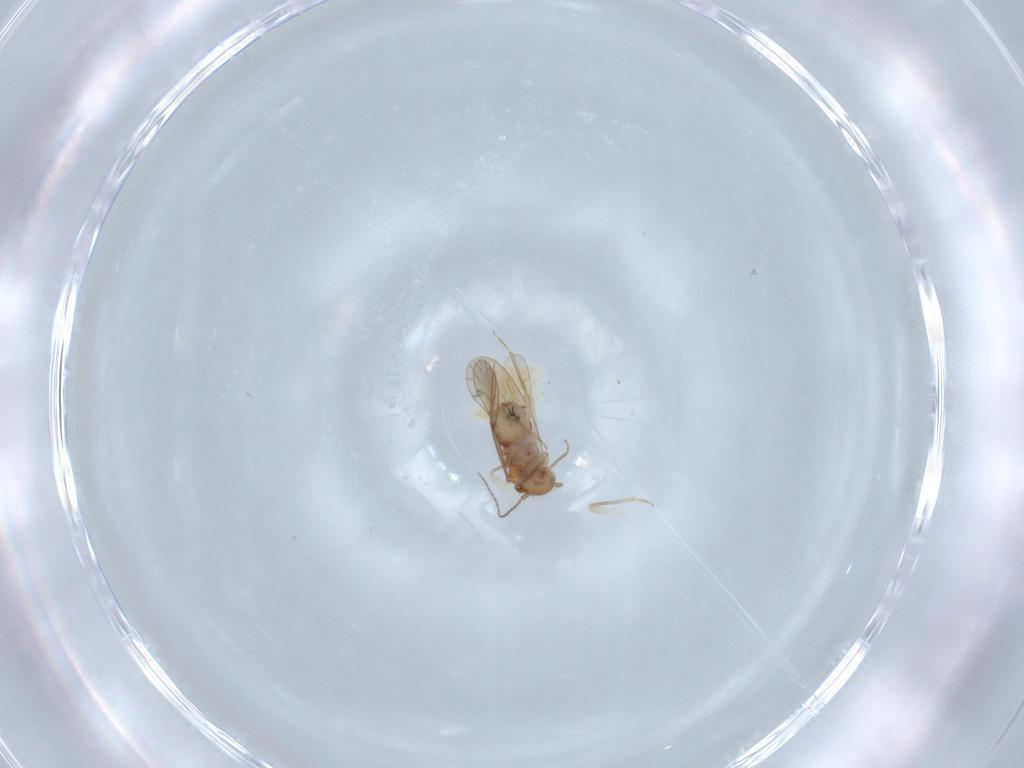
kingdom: Animalia
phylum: Arthropoda
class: Insecta
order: Psocodea
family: Ectopsocidae
